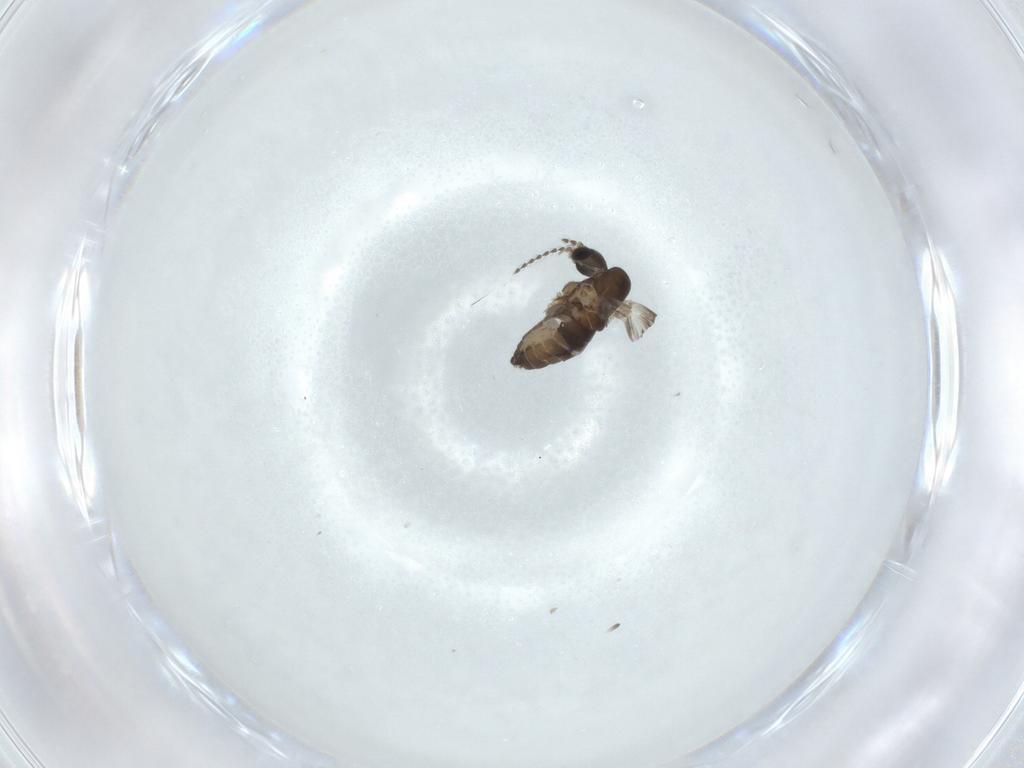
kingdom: Animalia
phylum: Arthropoda
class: Insecta
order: Diptera
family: Lauxaniidae
